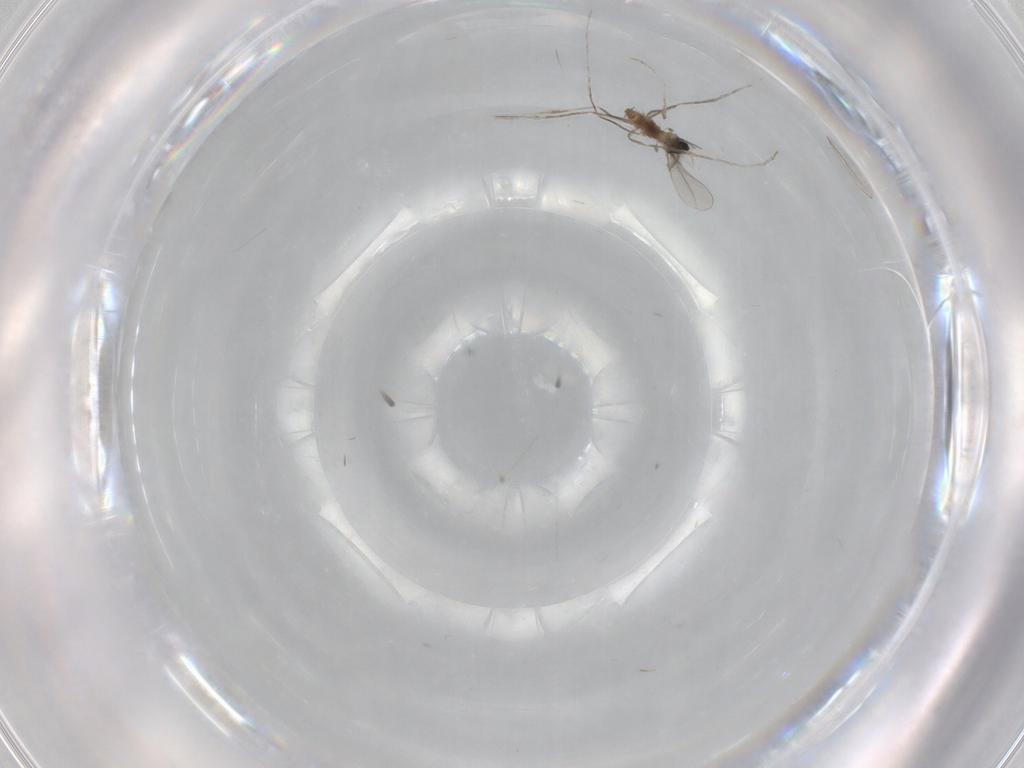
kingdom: Animalia
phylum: Arthropoda
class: Insecta
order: Diptera
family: Cecidomyiidae
